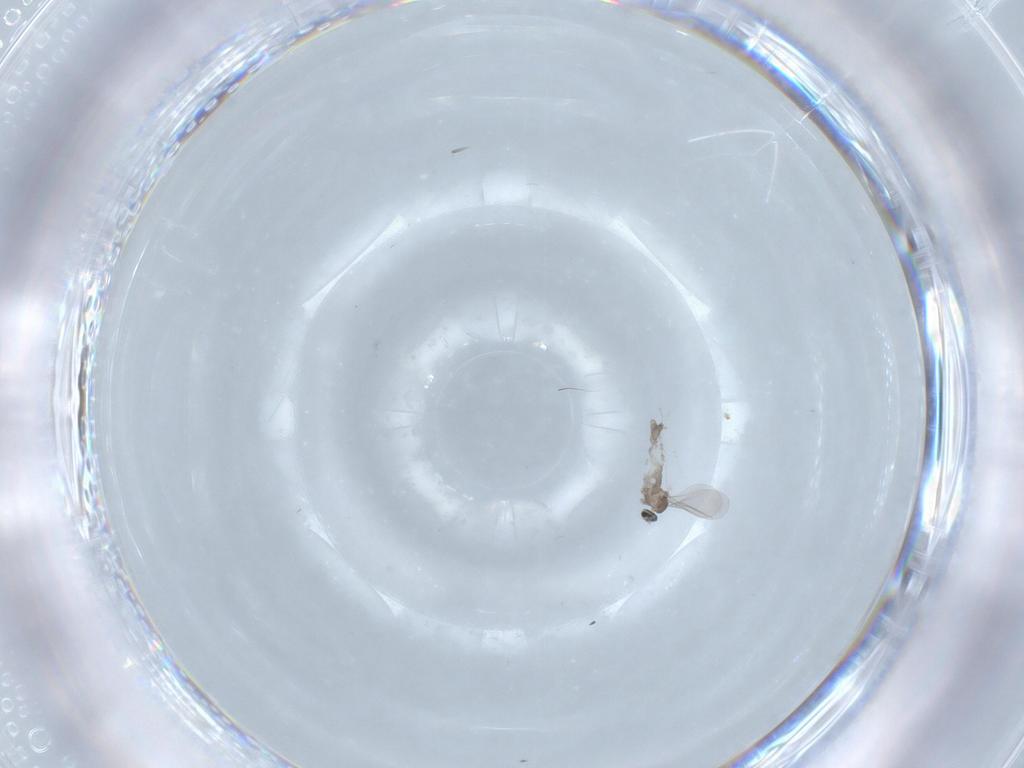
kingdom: Animalia
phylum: Arthropoda
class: Insecta
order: Diptera
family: Cecidomyiidae
